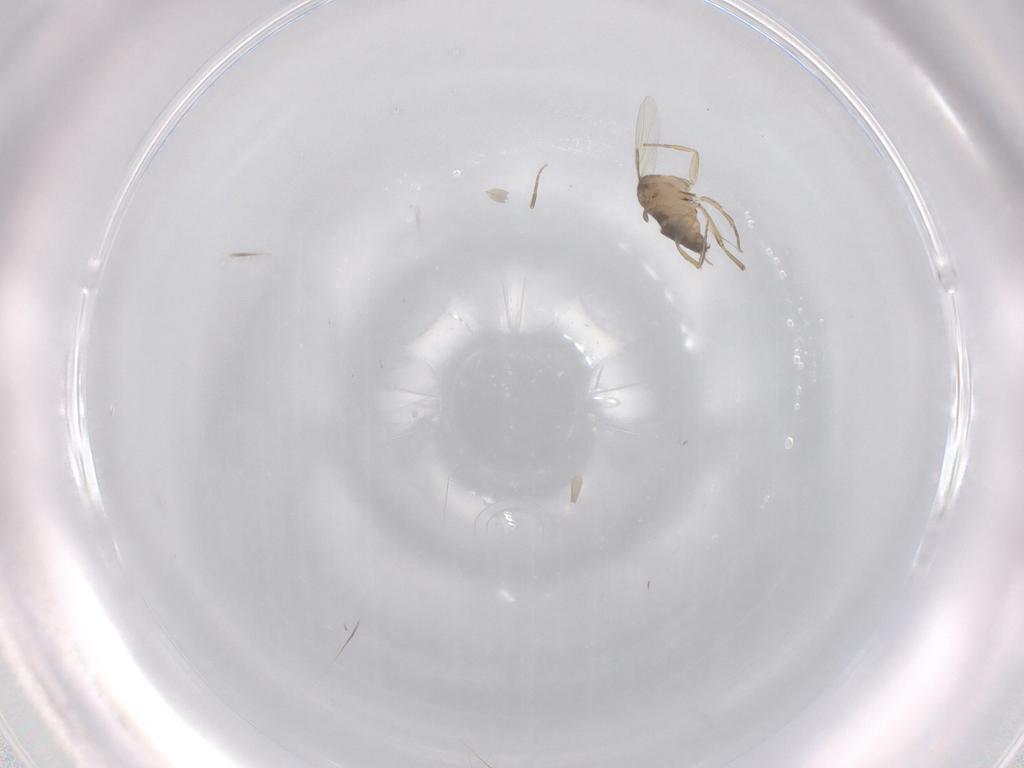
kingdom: Animalia
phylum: Arthropoda
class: Insecta
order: Diptera
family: Phoridae
